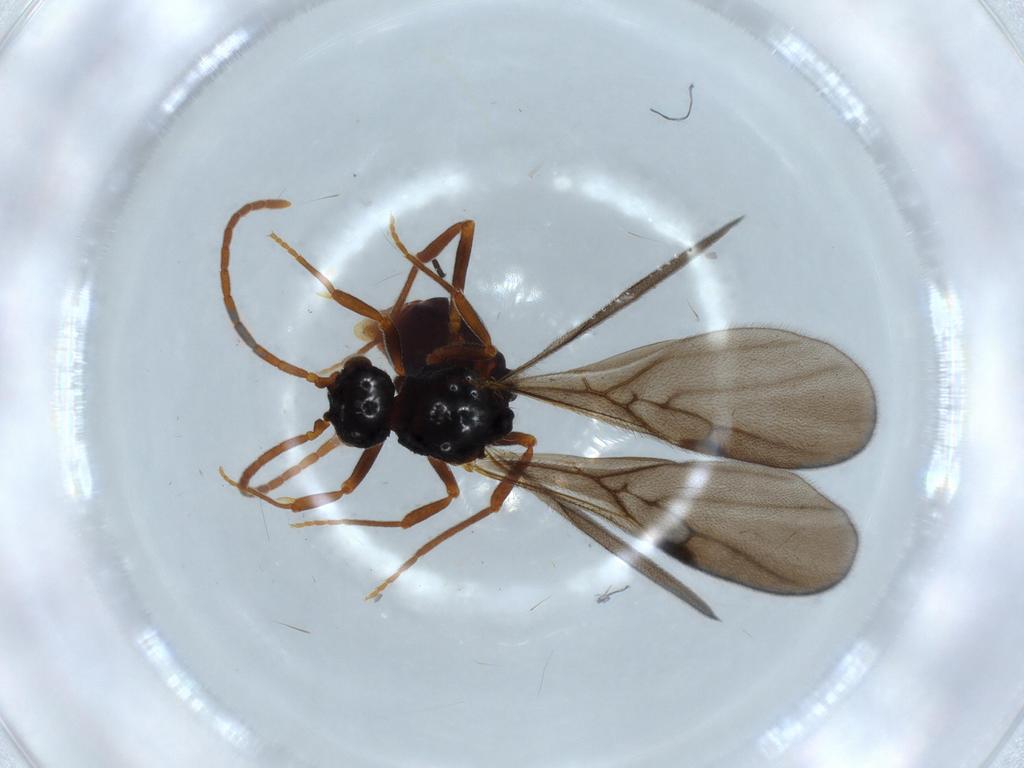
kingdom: Animalia
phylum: Arthropoda
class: Insecta
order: Hymenoptera
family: Formicidae
